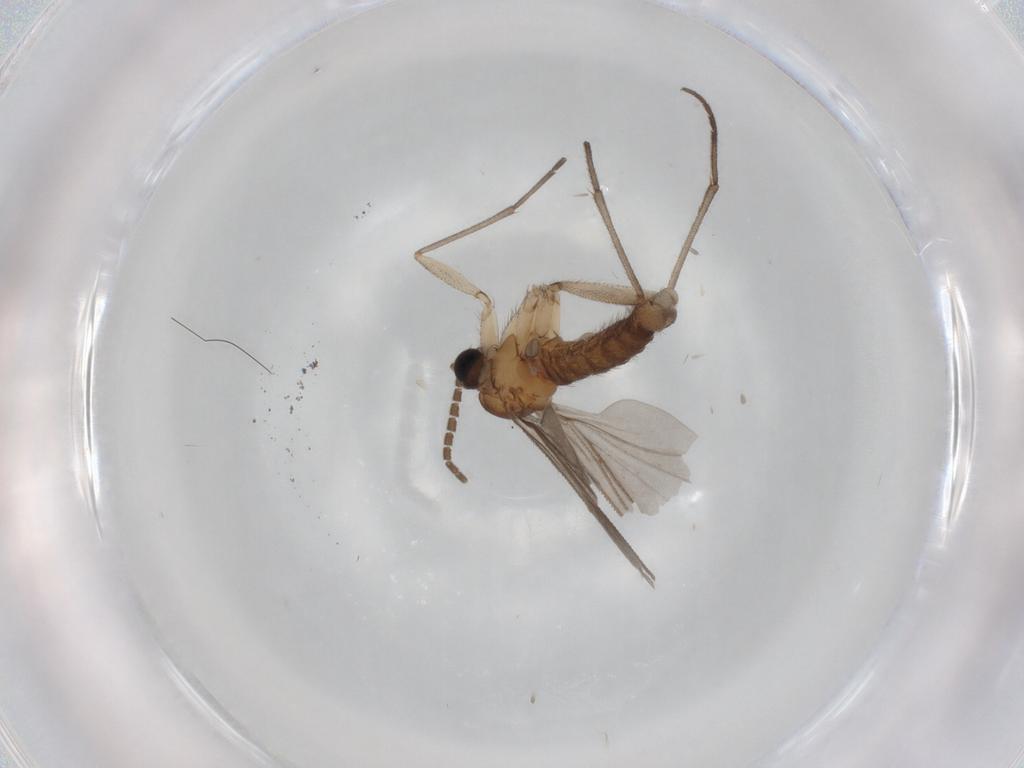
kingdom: Animalia
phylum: Arthropoda
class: Insecta
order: Diptera
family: Sciaridae
